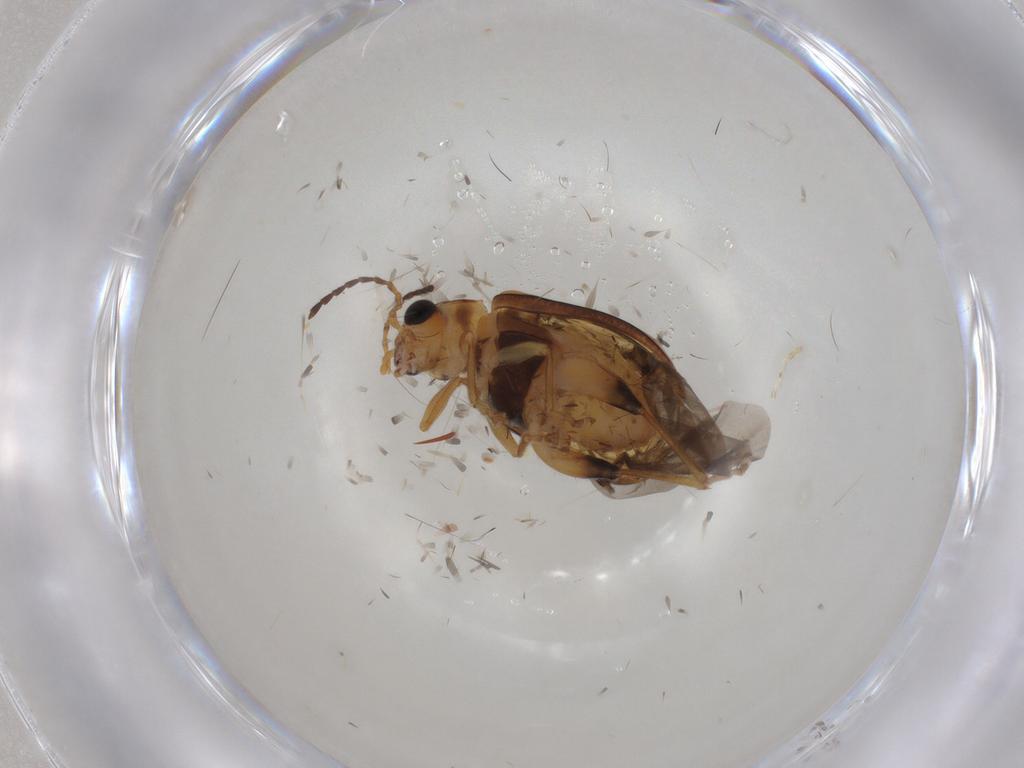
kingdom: Animalia
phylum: Arthropoda
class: Insecta
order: Coleoptera
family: Chrysomelidae
